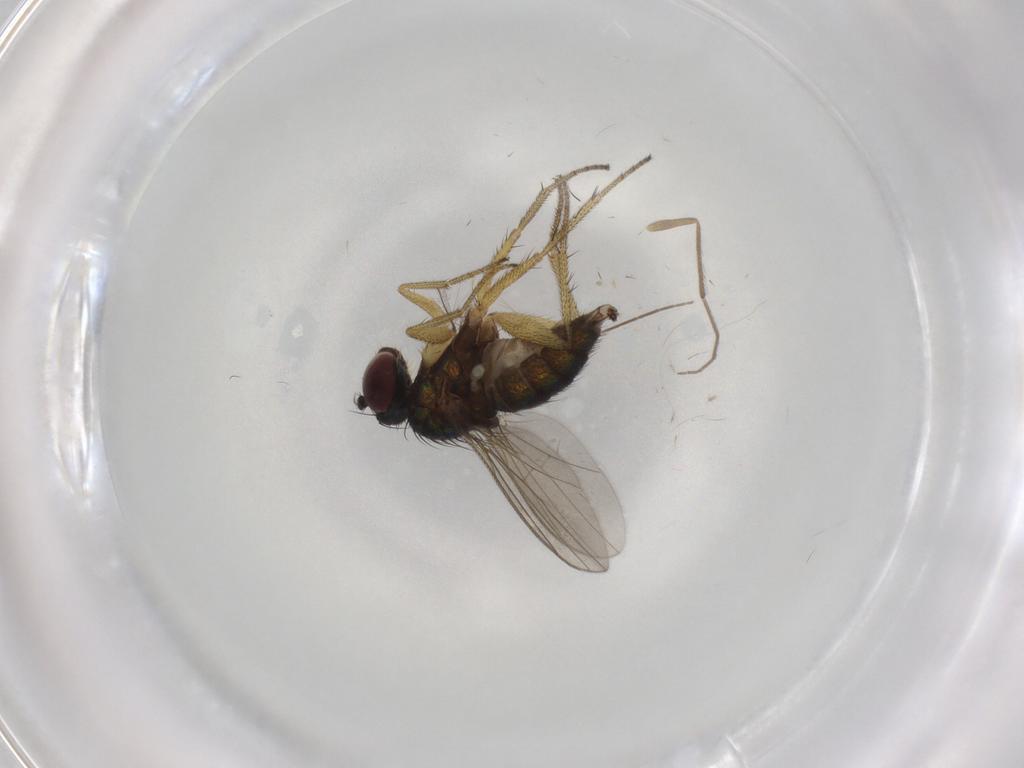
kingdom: Animalia
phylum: Arthropoda
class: Insecta
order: Diptera
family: Dolichopodidae
